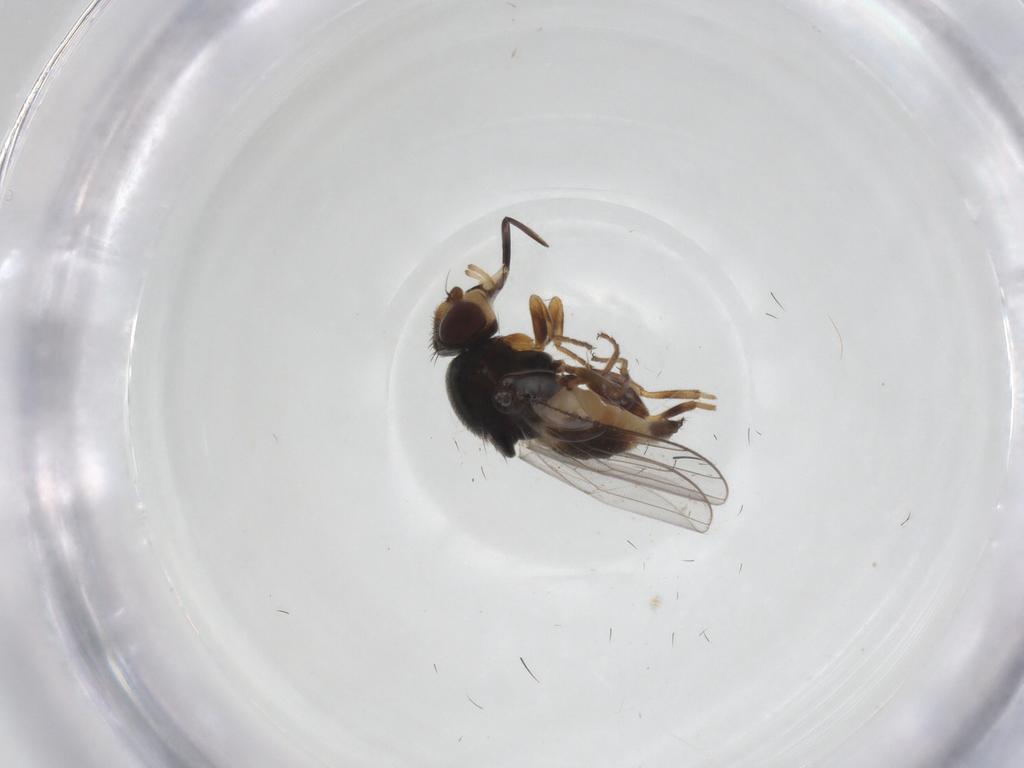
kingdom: Animalia
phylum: Arthropoda
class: Insecta
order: Diptera
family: Chloropidae
